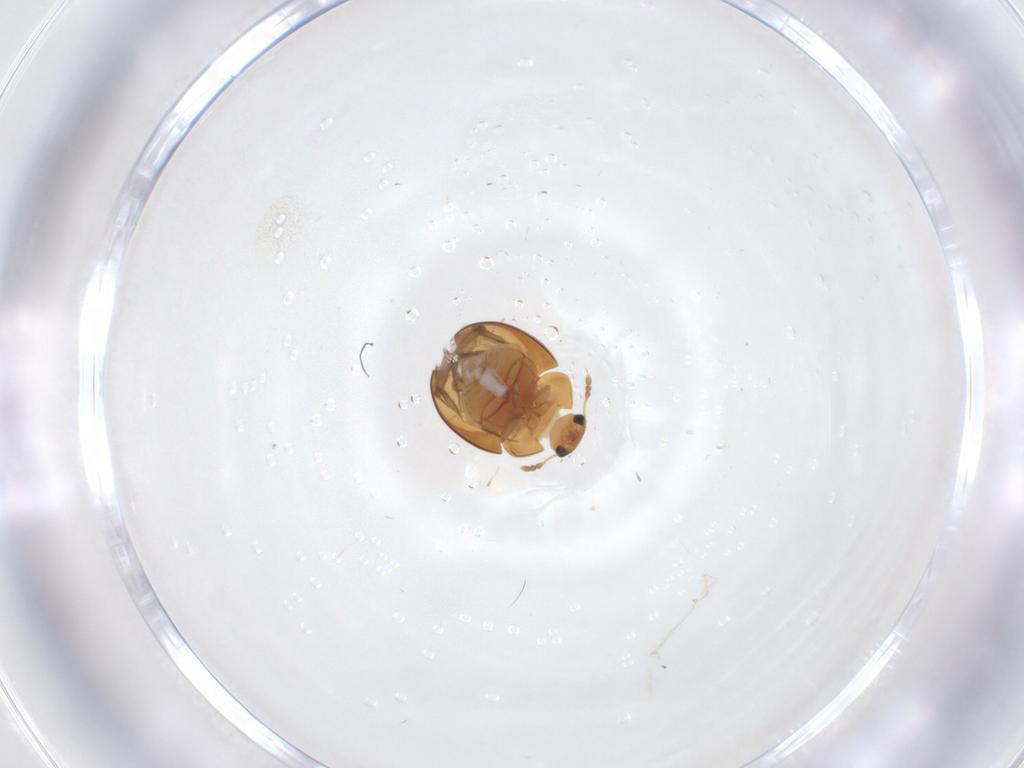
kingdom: Animalia
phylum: Arthropoda
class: Insecta
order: Coleoptera
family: Phalacridae
